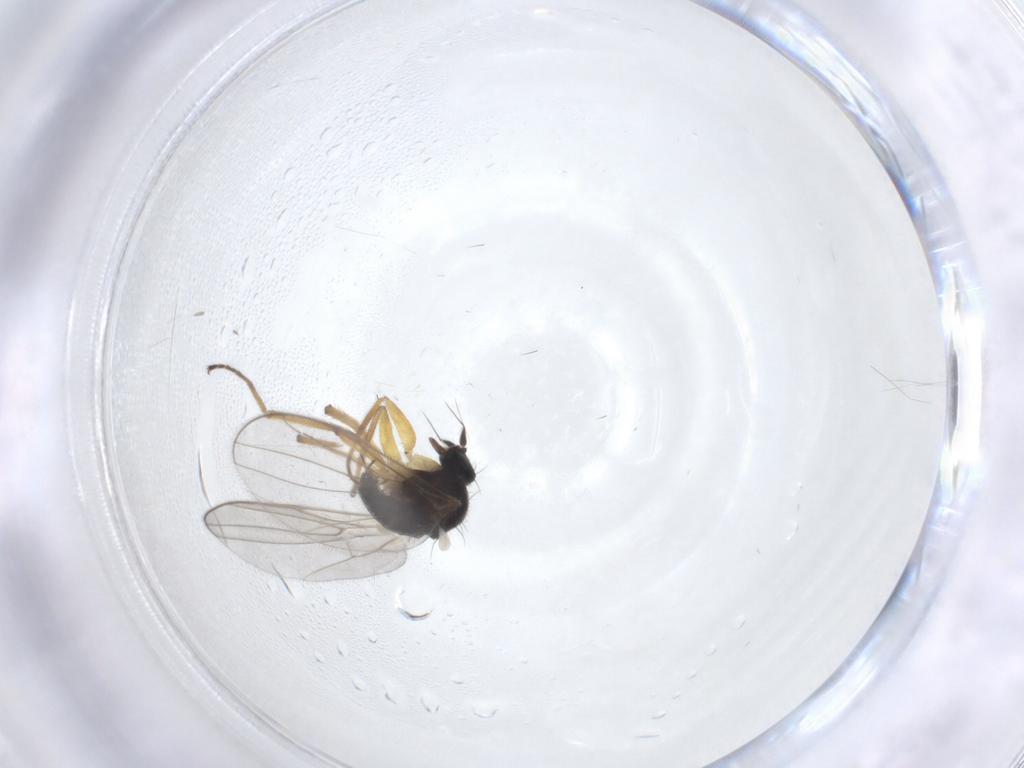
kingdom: Animalia
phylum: Arthropoda
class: Insecta
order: Diptera
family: Hybotidae
